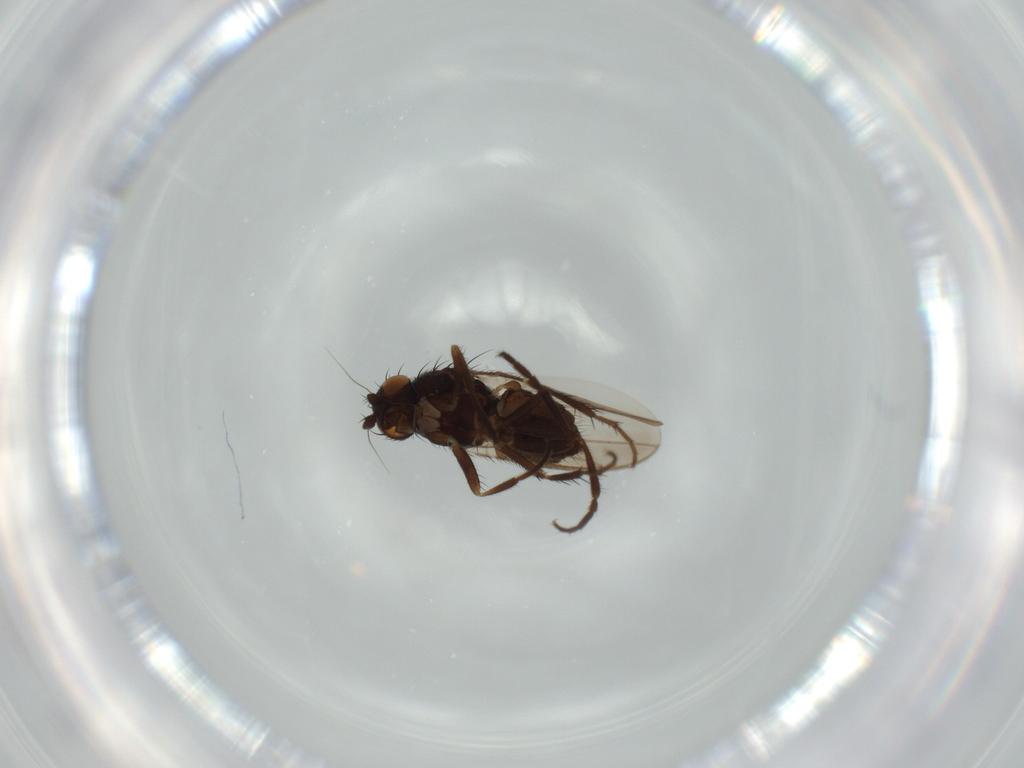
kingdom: Animalia
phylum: Arthropoda
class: Insecta
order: Diptera
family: Sphaeroceridae
